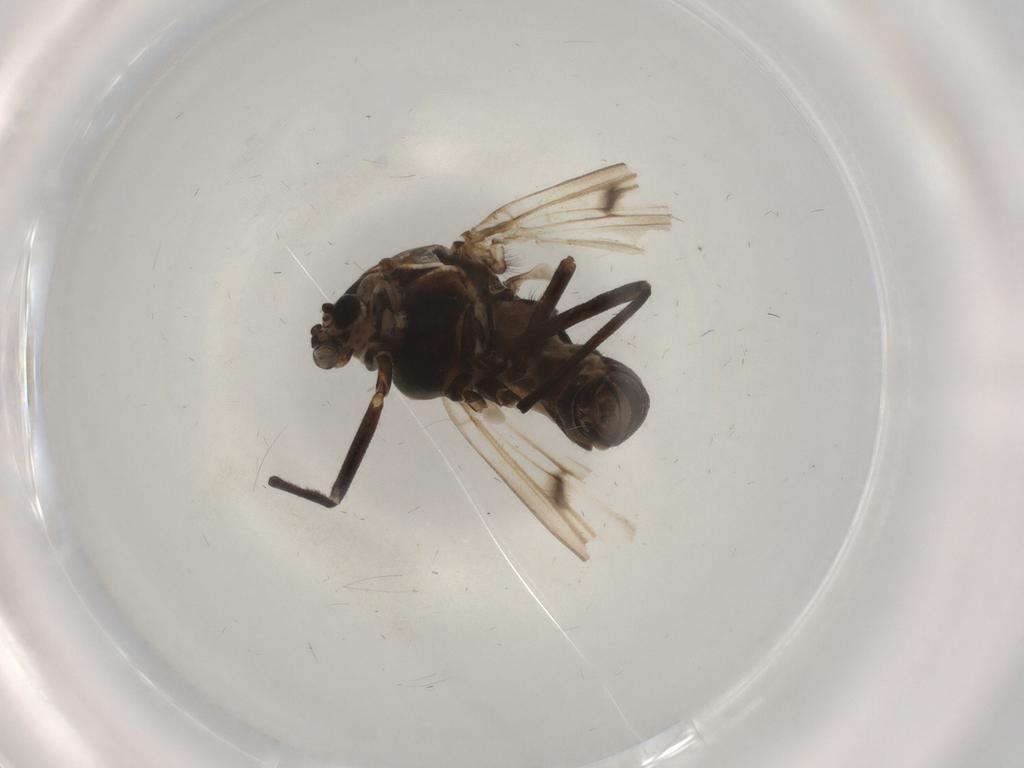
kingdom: Animalia
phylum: Arthropoda
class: Insecta
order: Diptera
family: Chironomidae
